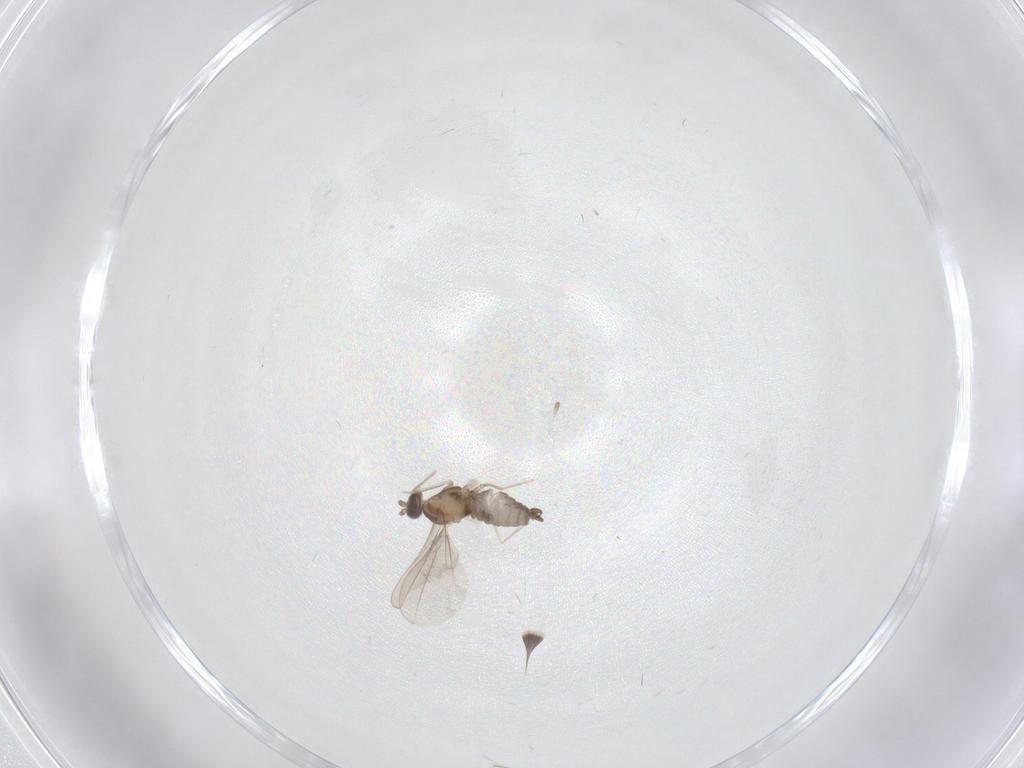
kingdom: Animalia
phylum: Arthropoda
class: Insecta
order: Diptera
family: Cecidomyiidae
